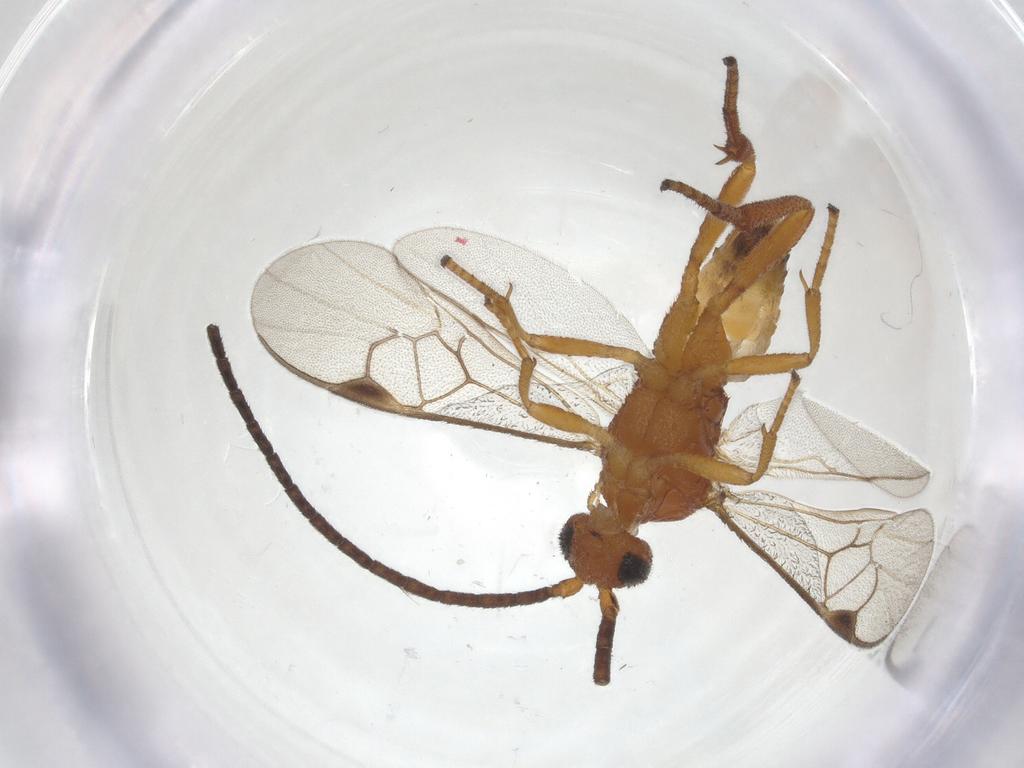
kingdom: Animalia
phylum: Arthropoda
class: Insecta
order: Hymenoptera
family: Braconidae
